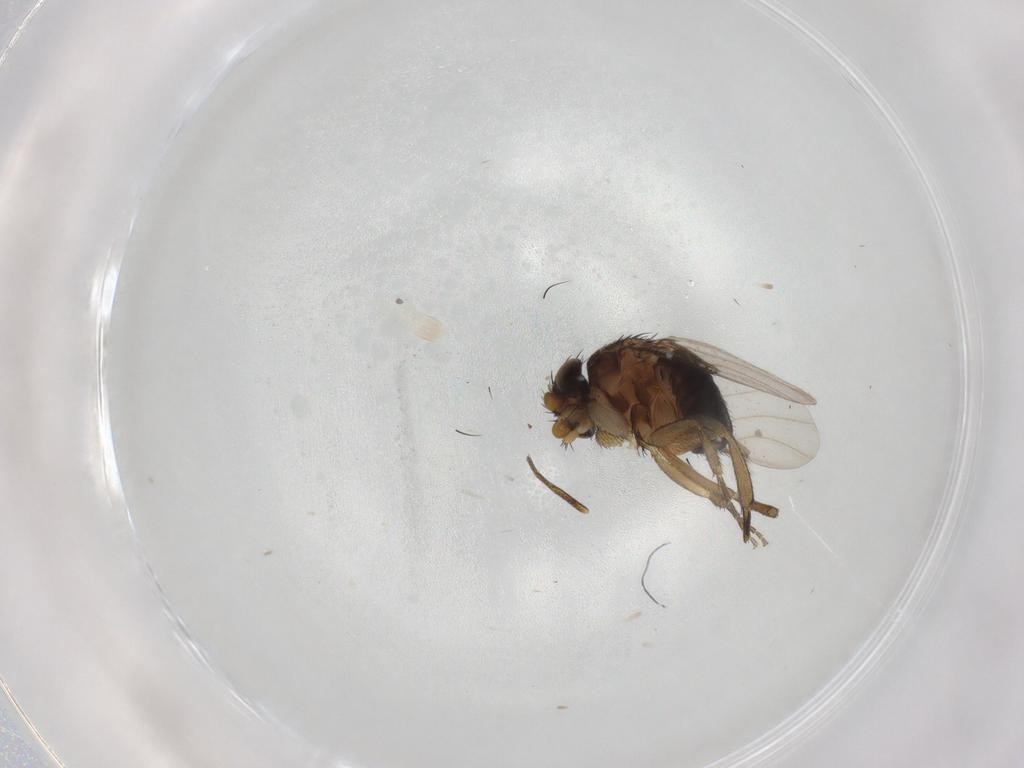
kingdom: Animalia
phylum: Arthropoda
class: Insecta
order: Diptera
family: Phoridae
